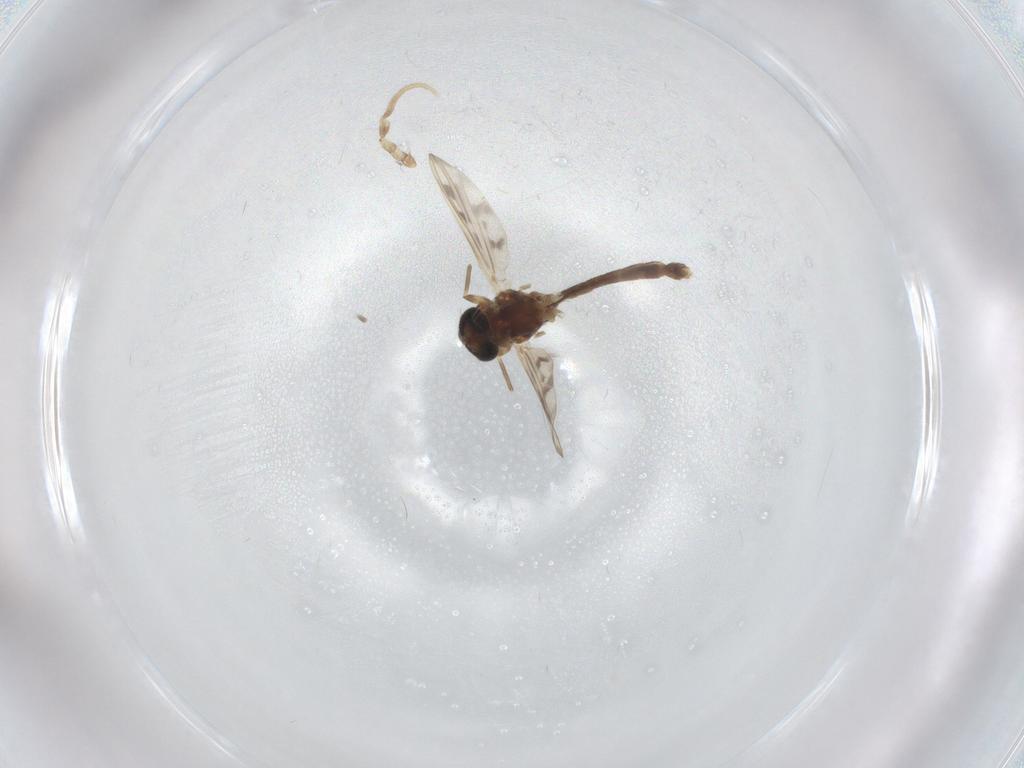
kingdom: Animalia
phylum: Arthropoda
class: Insecta
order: Diptera
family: Chironomidae
